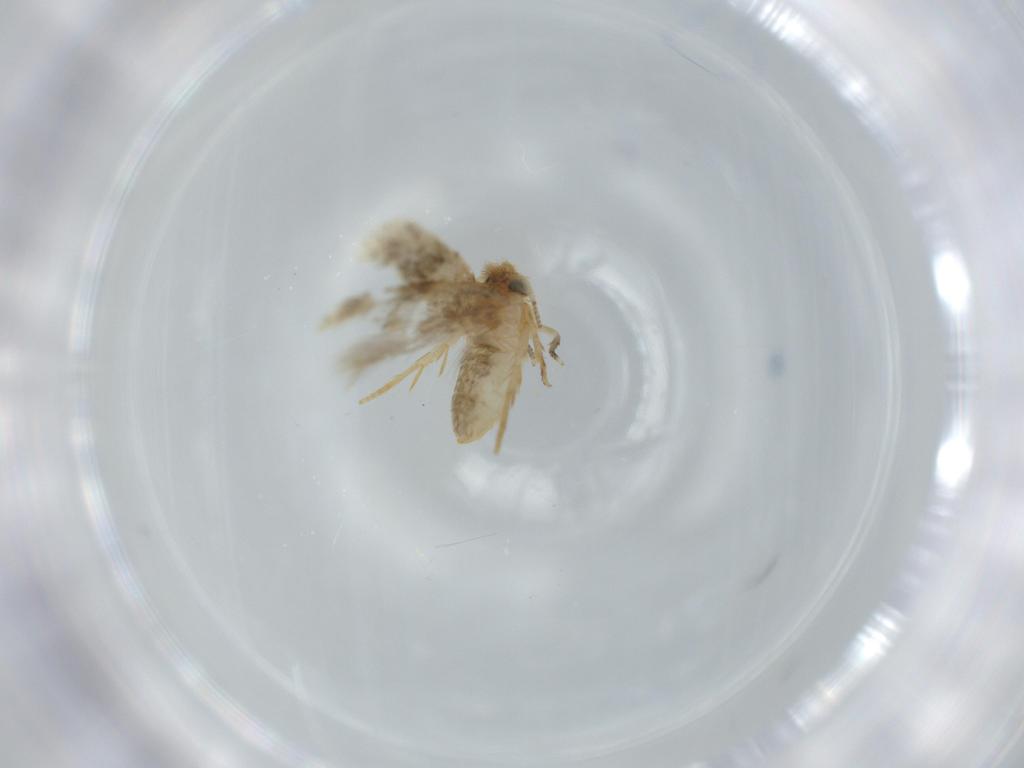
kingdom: Animalia
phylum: Arthropoda
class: Insecta
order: Lepidoptera
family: Nepticulidae
